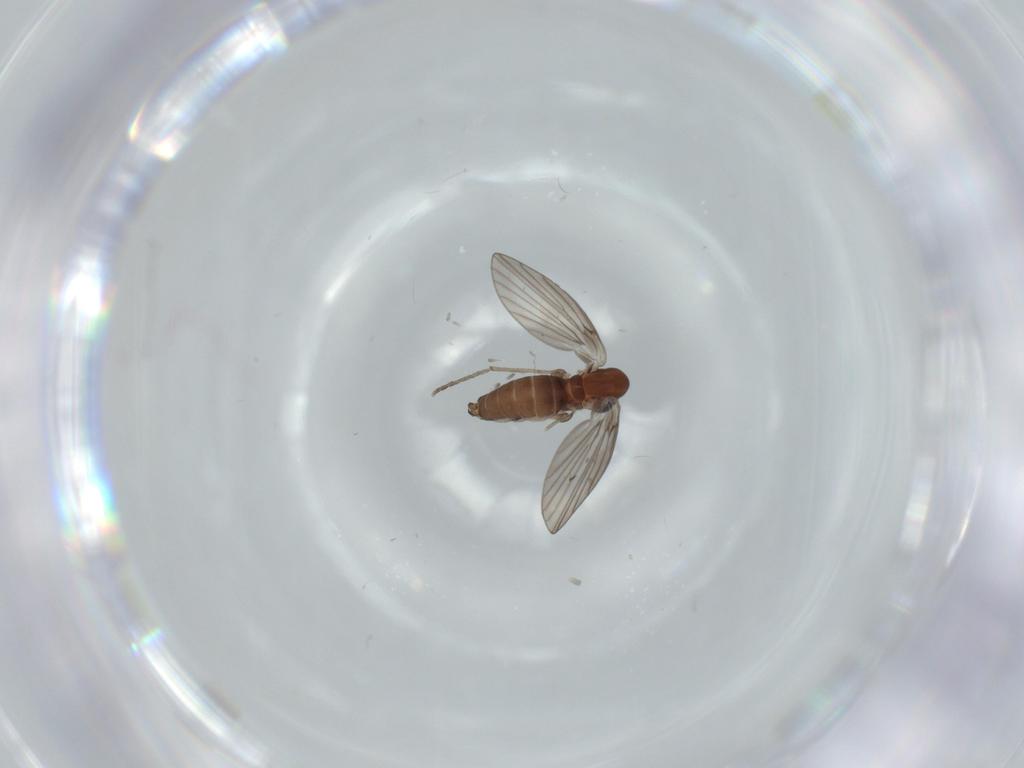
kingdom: Animalia
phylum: Arthropoda
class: Insecta
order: Diptera
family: Psychodidae
